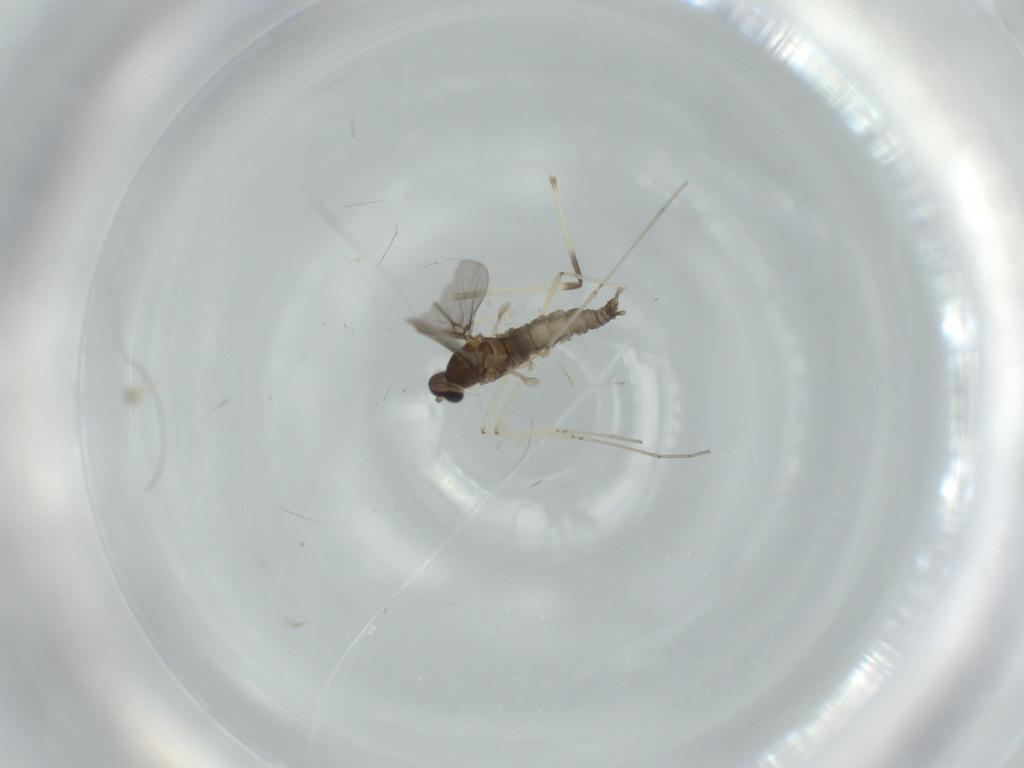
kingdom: Animalia
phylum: Arthropoda
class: Insecta
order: Diptera
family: Cecidomyiidae
